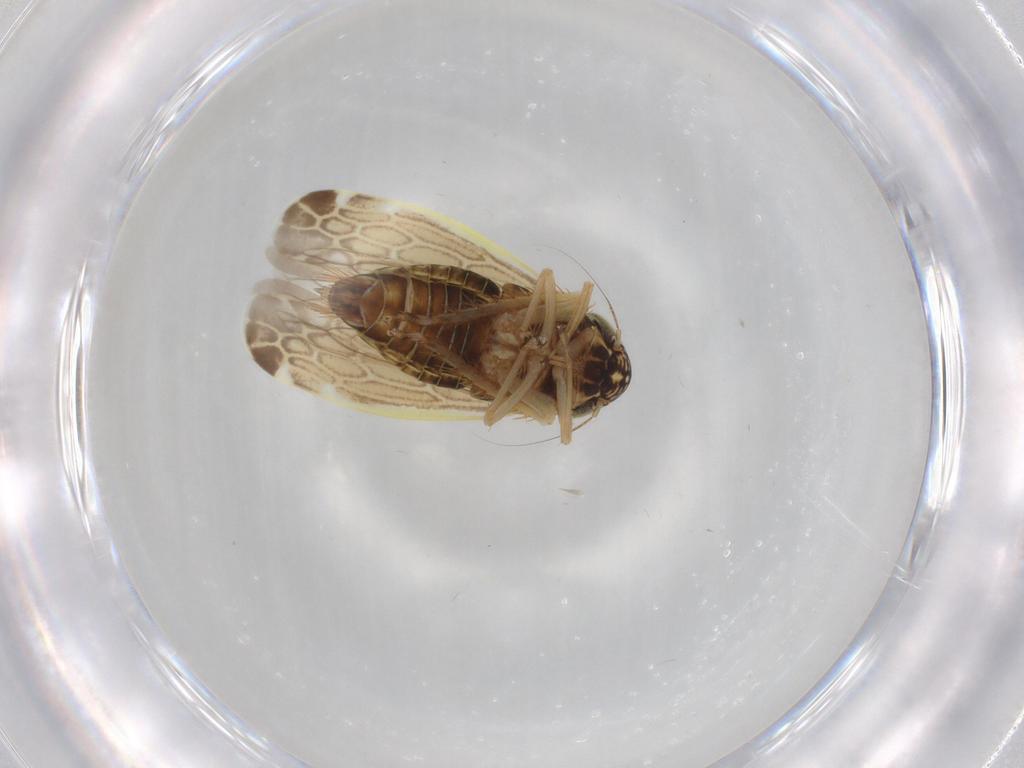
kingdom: Animalia
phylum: Arthropoda
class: Insecta
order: Hemiptera
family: Cicadellidae
